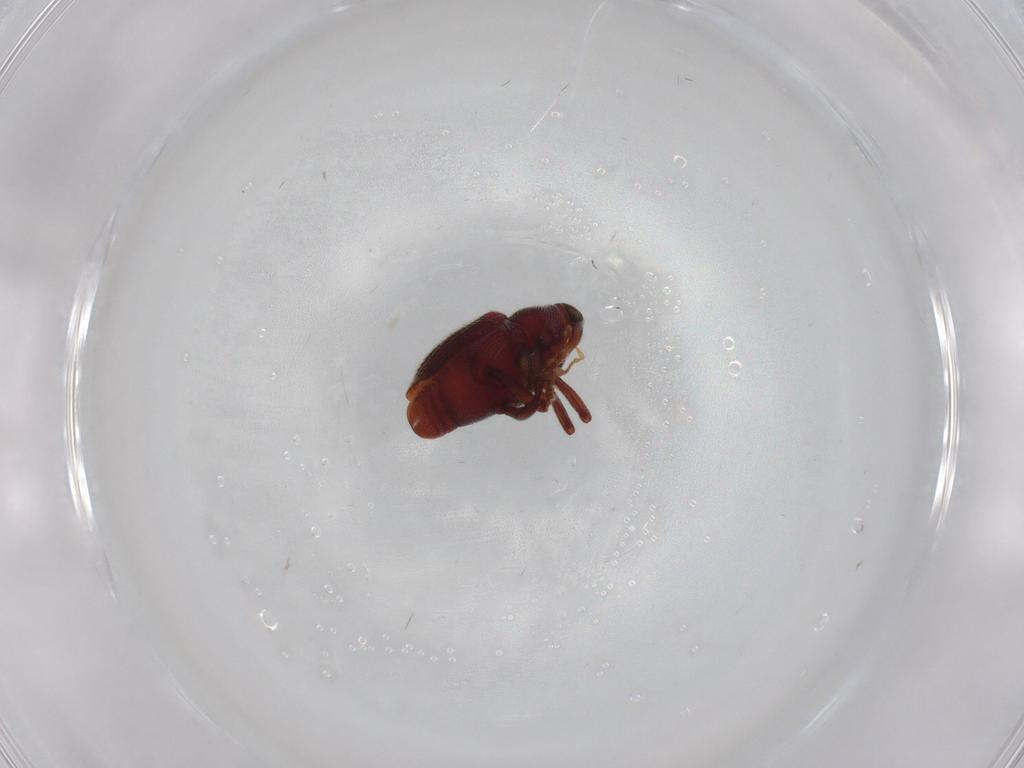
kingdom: Animalia
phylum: Arthropoda
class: Insecta
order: Coleoptera
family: Curculionidae
